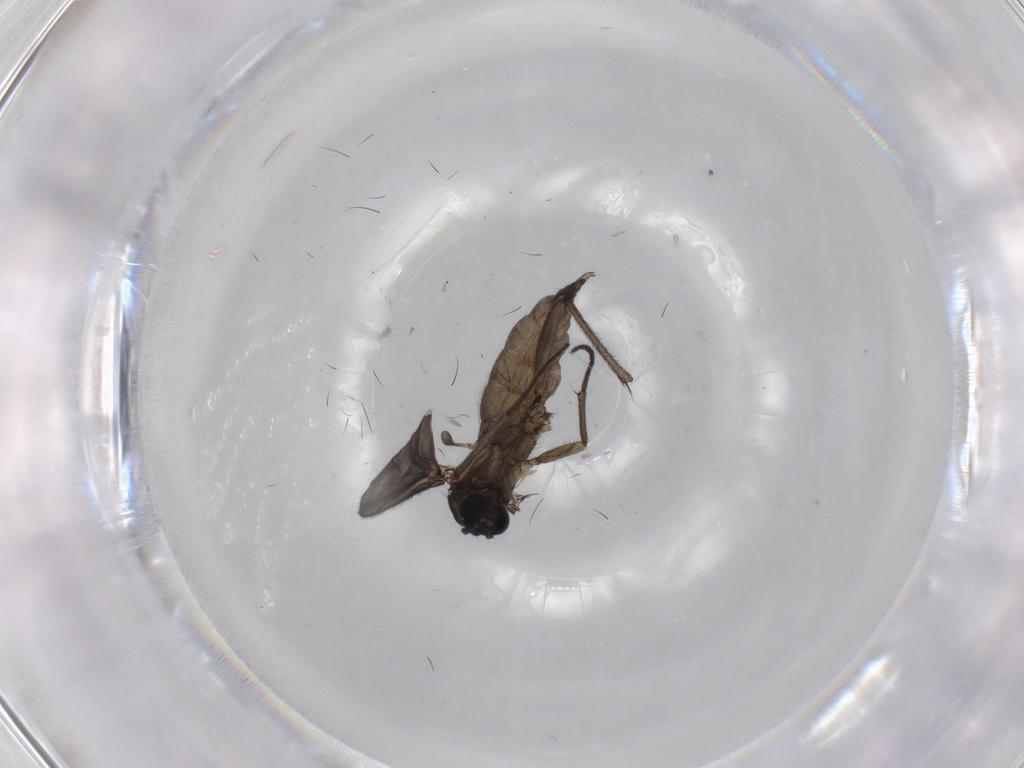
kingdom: Animalia
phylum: Arthropoda
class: Insecta
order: Diptera
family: Sciaridae
